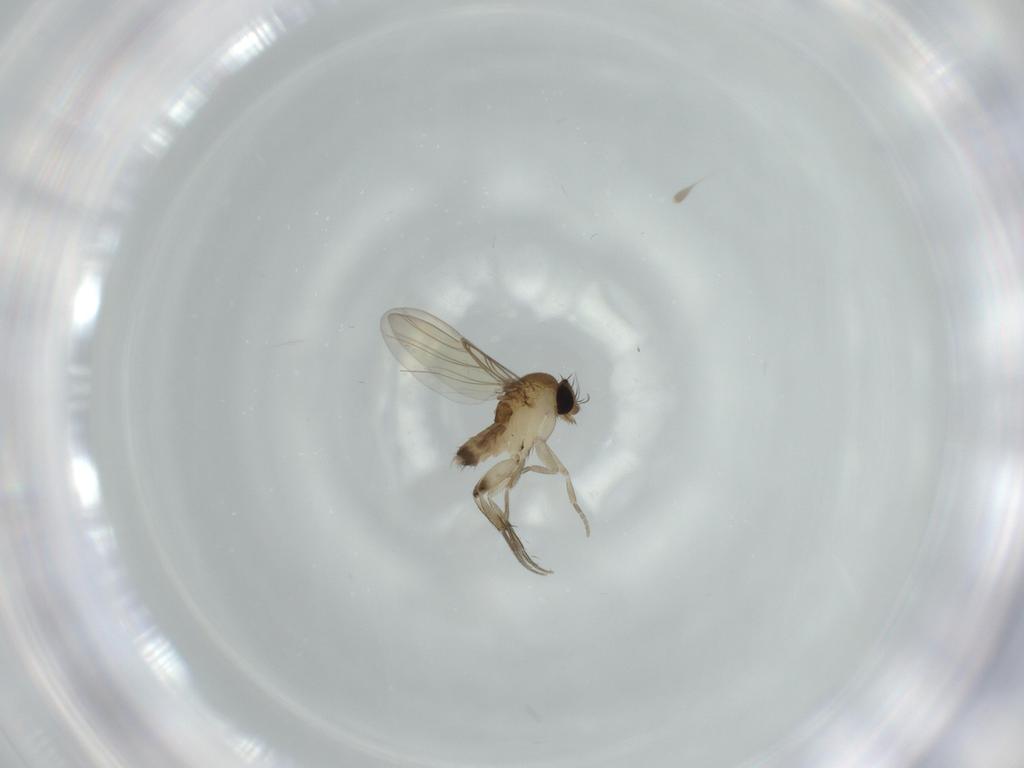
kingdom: Animalia
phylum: Arthropoda
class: Insecta
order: Diptera
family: Phoridae
